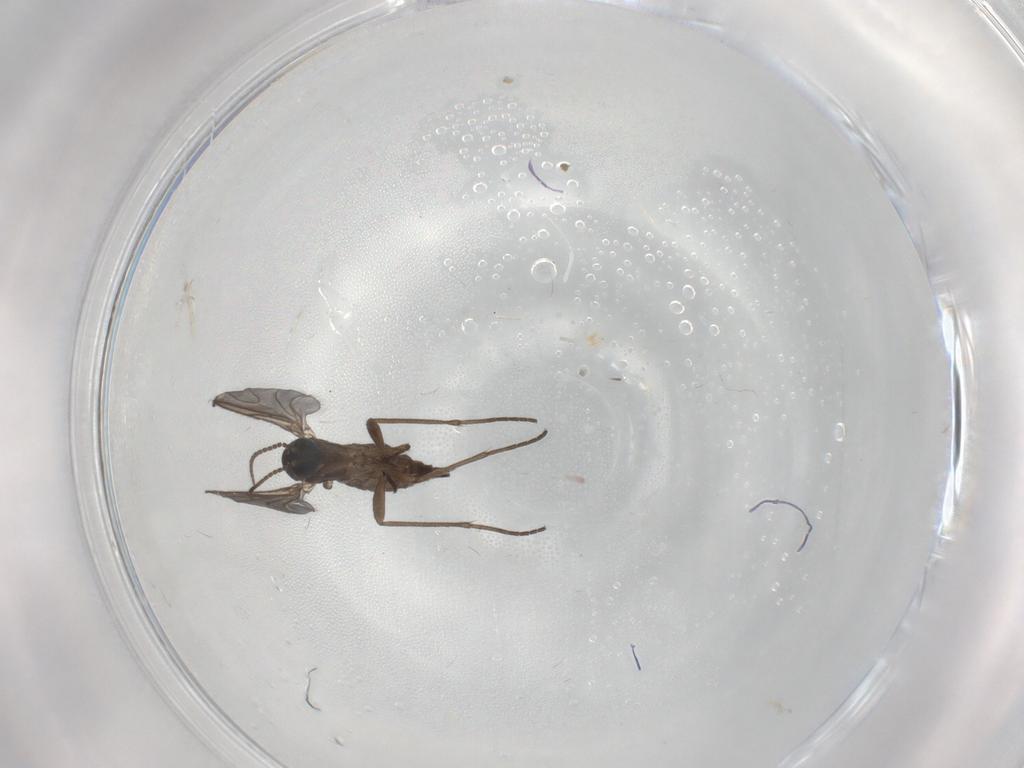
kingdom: Animalia
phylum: Arthropoda
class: Insecta
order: Diptera
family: Sciaridae
